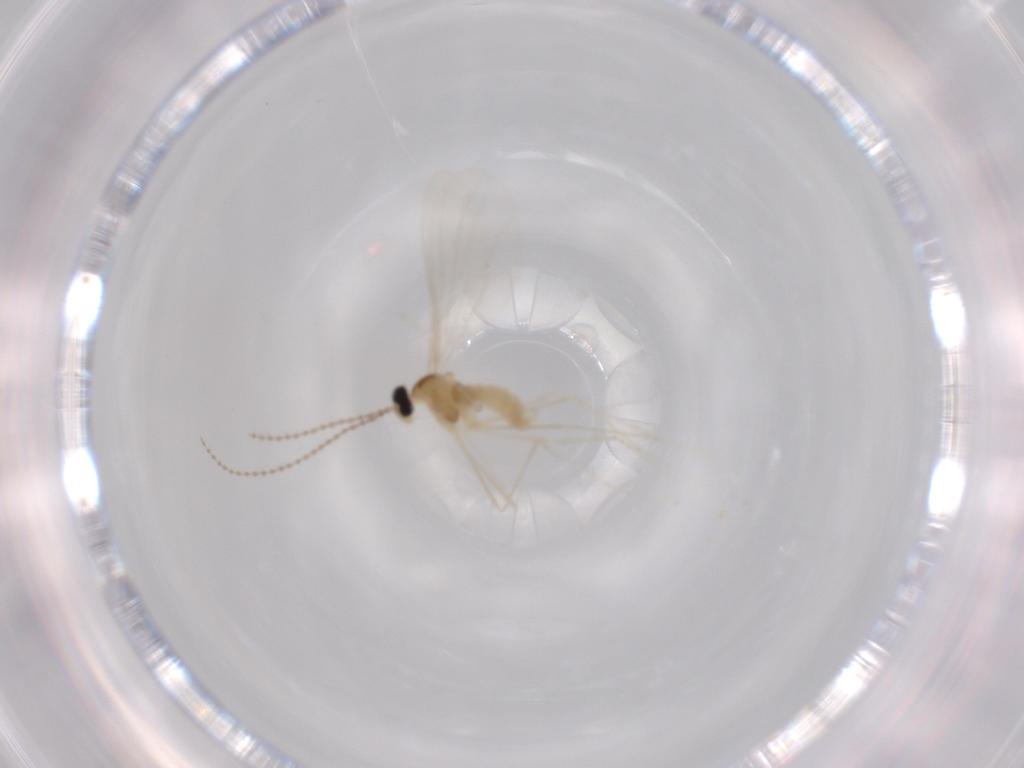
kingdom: Animalia
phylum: Arthropoda
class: Insecta
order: Diptera
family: Cecidomyiidae
